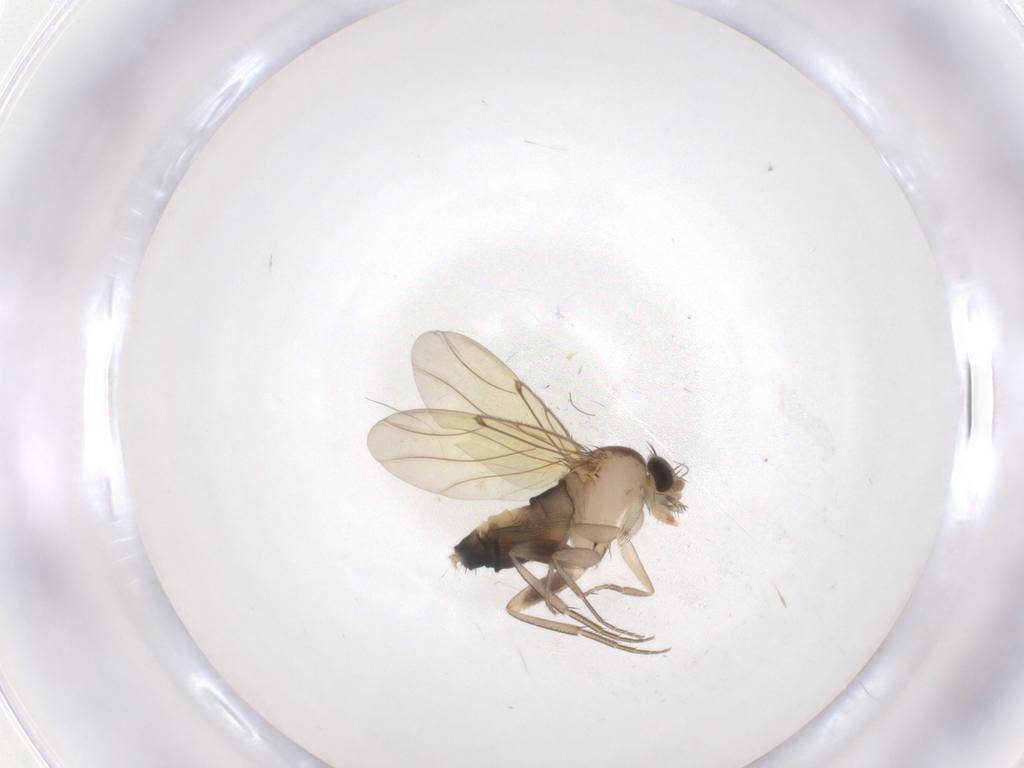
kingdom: Animalia
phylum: Arthropoda
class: Insecta
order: Diptera
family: Phoridae
